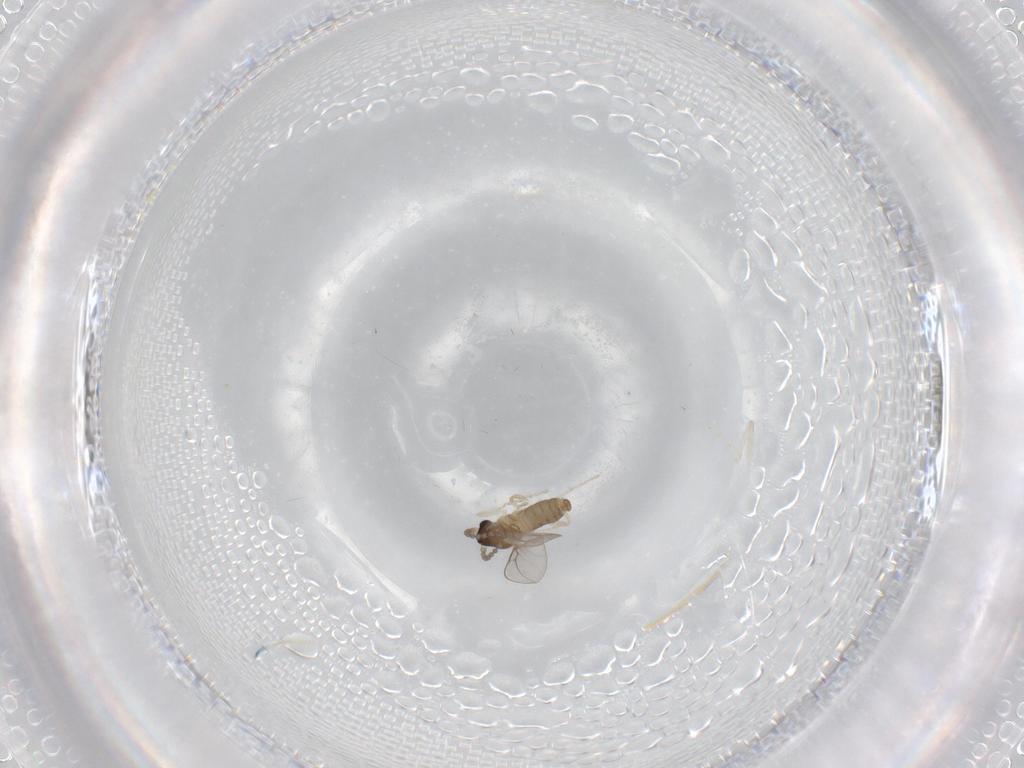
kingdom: Animalia
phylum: Arthropoda
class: Insecta
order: Diptera
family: Cecidomyiidae
